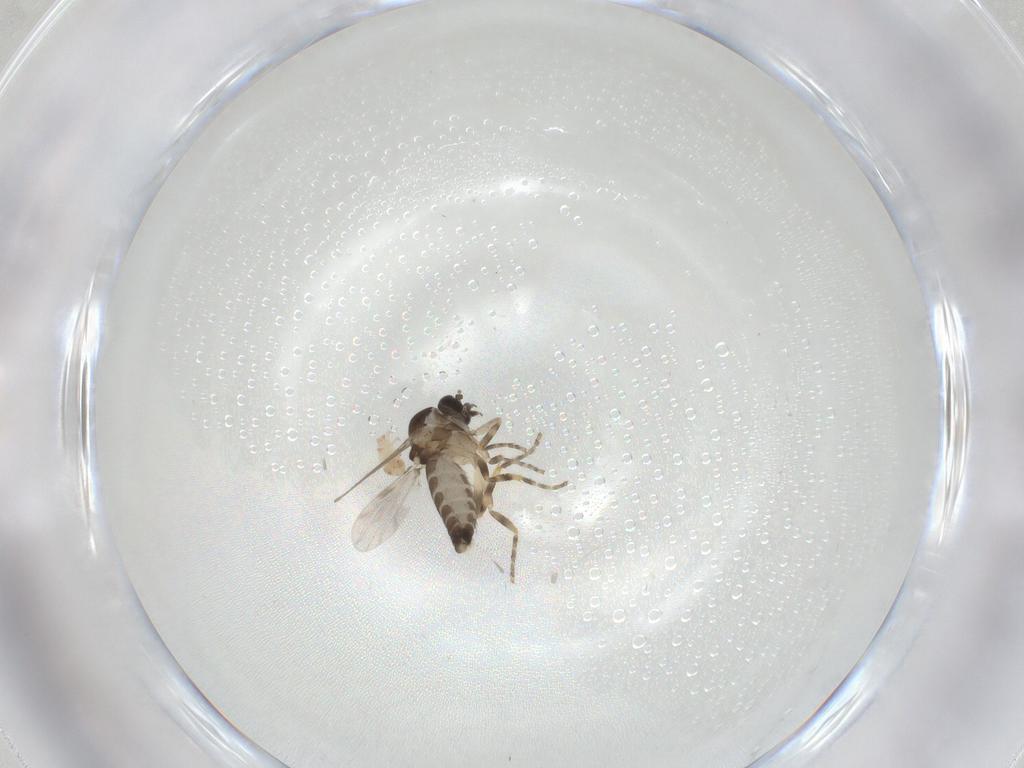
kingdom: Animalia
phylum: Arthropoda
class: Insecta
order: Diptera
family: Ceratopogonidae
